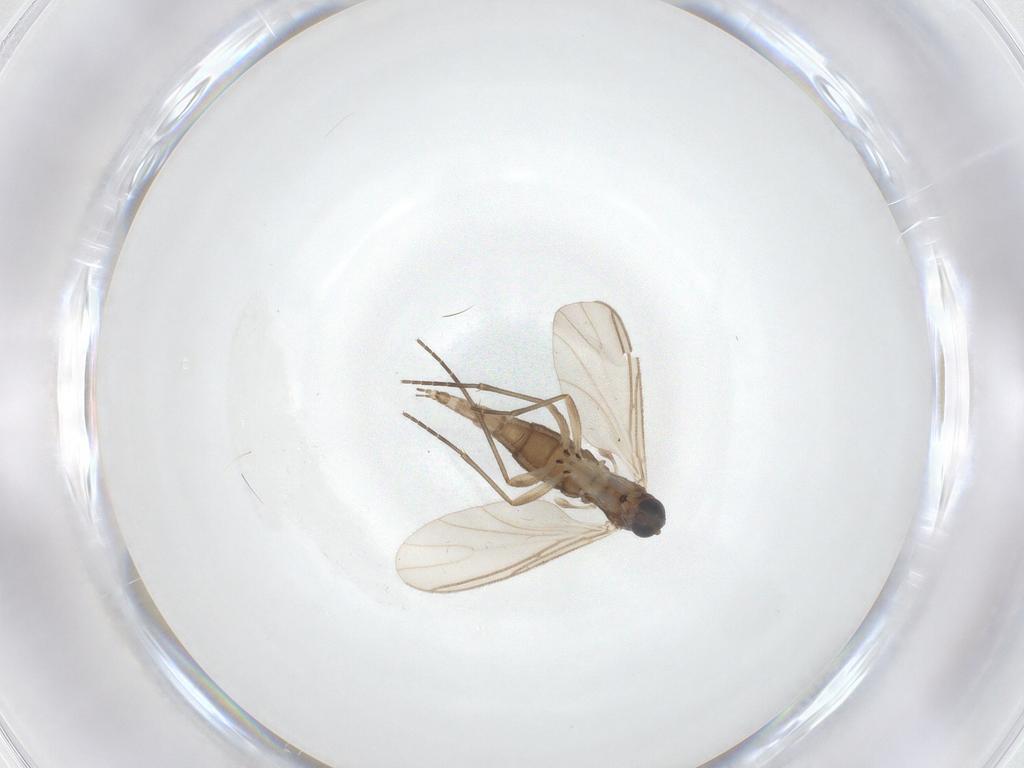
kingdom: Animalia
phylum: Arthropoda
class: Insecta
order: Diptera
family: Sciaridae
